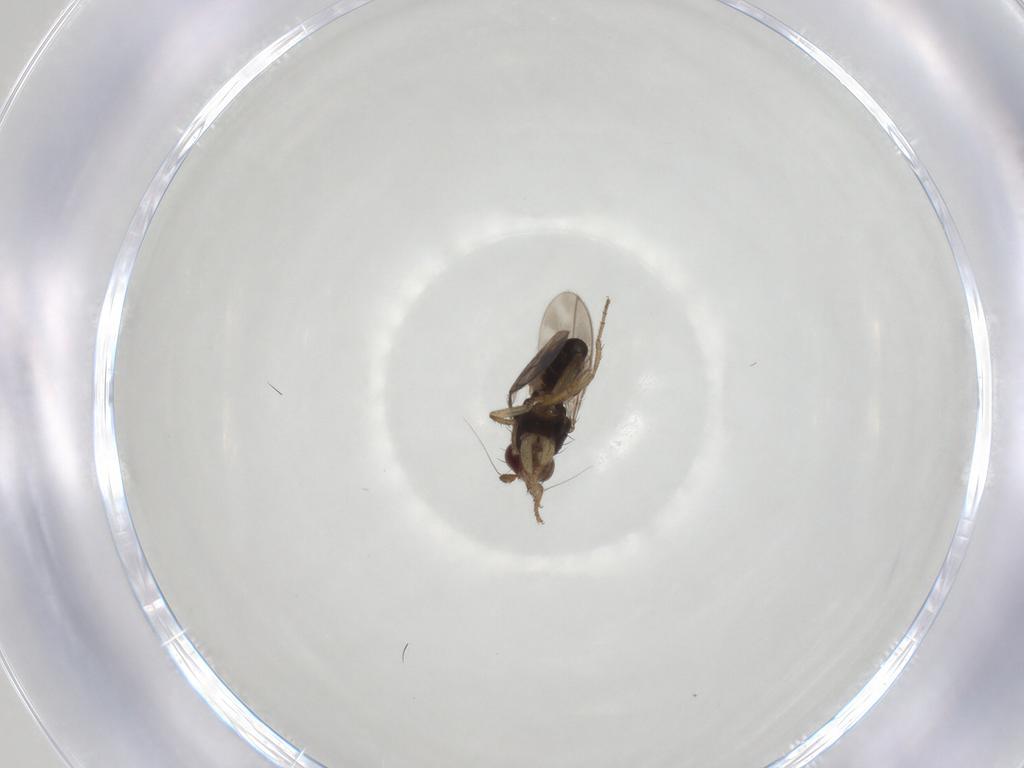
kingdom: Animalia
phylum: Arthropoda
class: Insecta
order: Diptera
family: Sphaeroceridae
